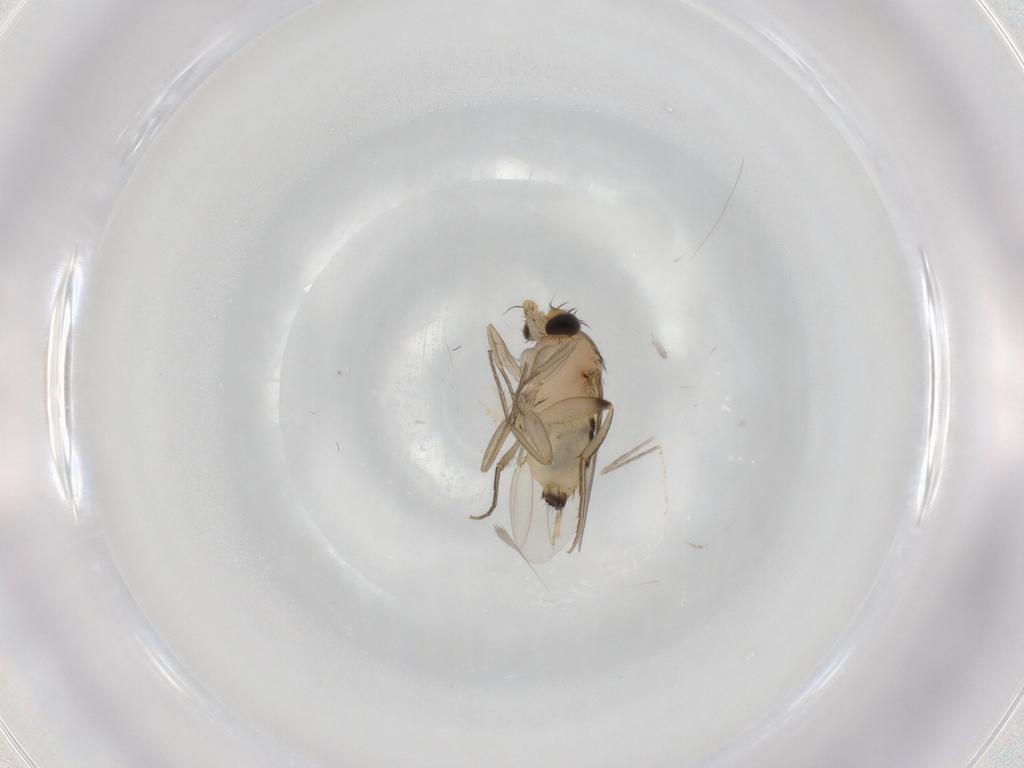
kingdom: Animalia
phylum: Arthropoda
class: Insecta
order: Diptera
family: Phoridae
